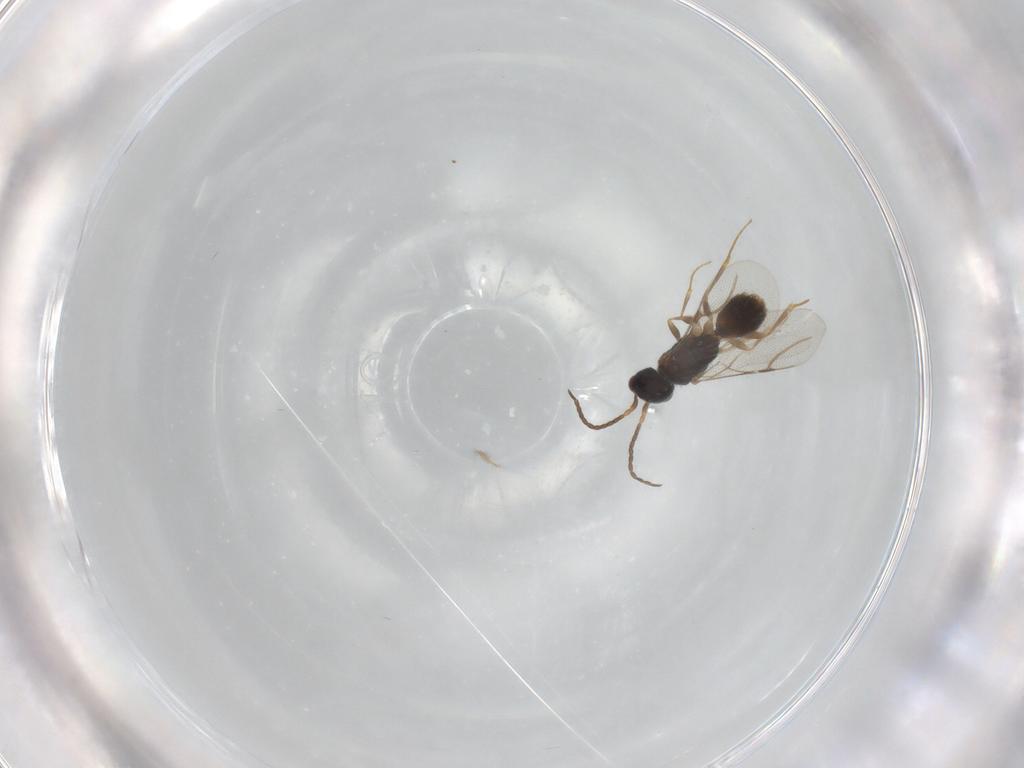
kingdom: Animalia
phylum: Arthropoda
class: Insecta
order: Hymenoptera
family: Bethylidae
